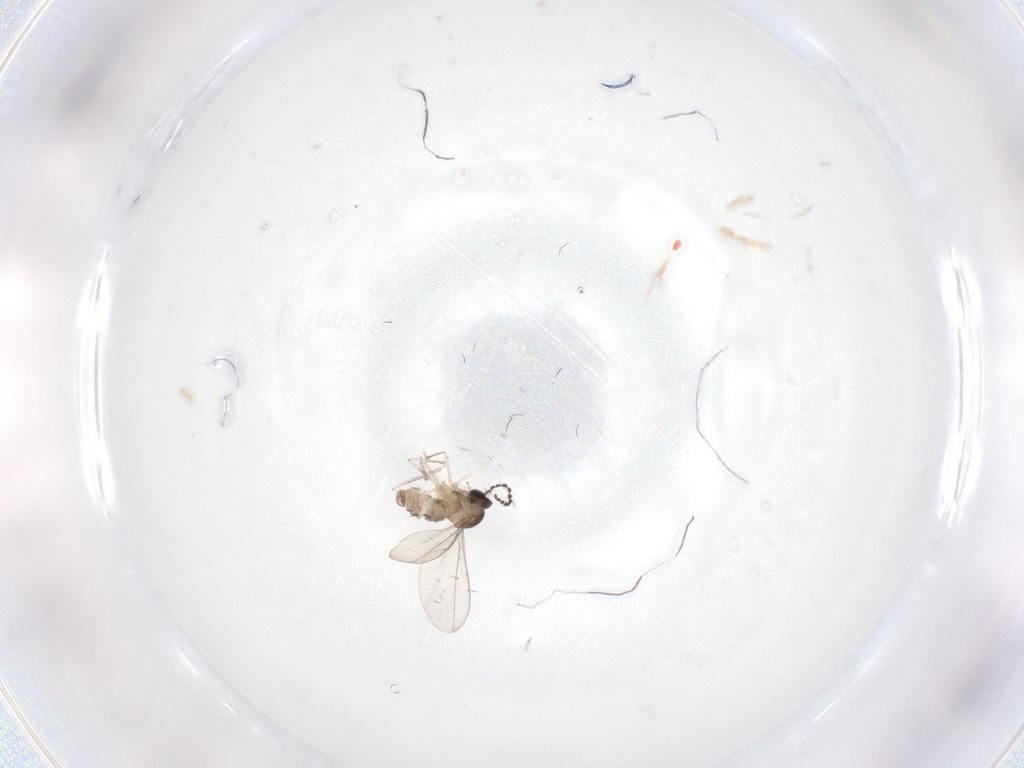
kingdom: Animalia
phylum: Arthropoda
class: Insecta
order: Diptera
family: Cecidomyiidae
